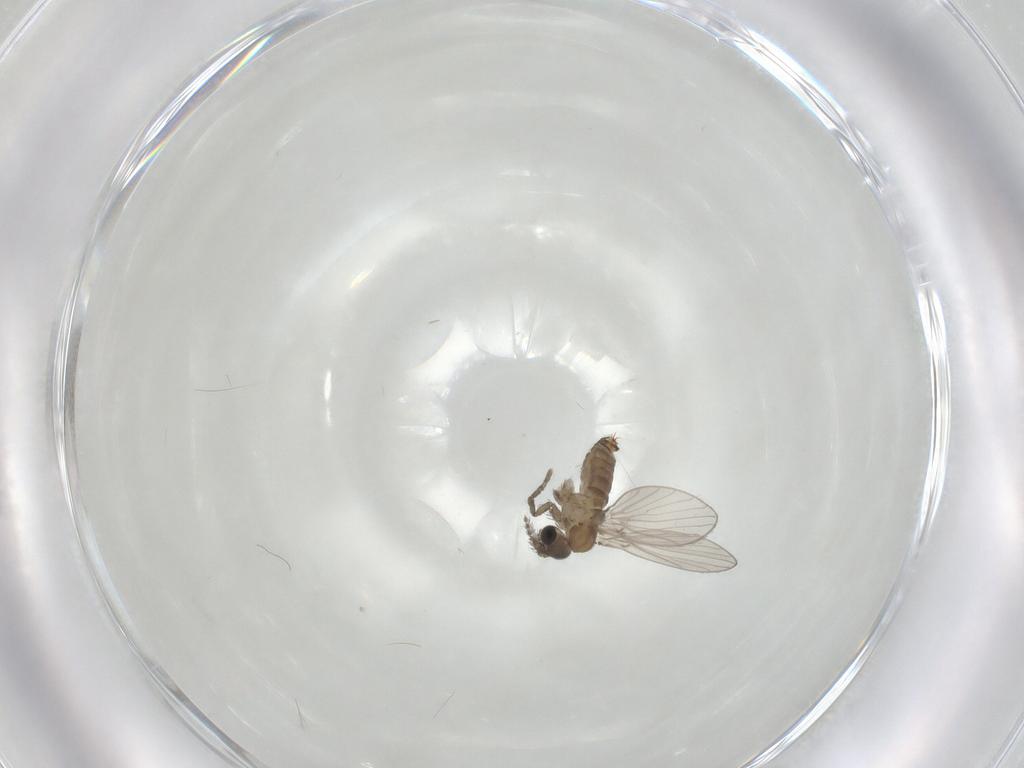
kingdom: Animalia
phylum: Arthropoda
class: Insecta
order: Diptera
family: Psychodidae
